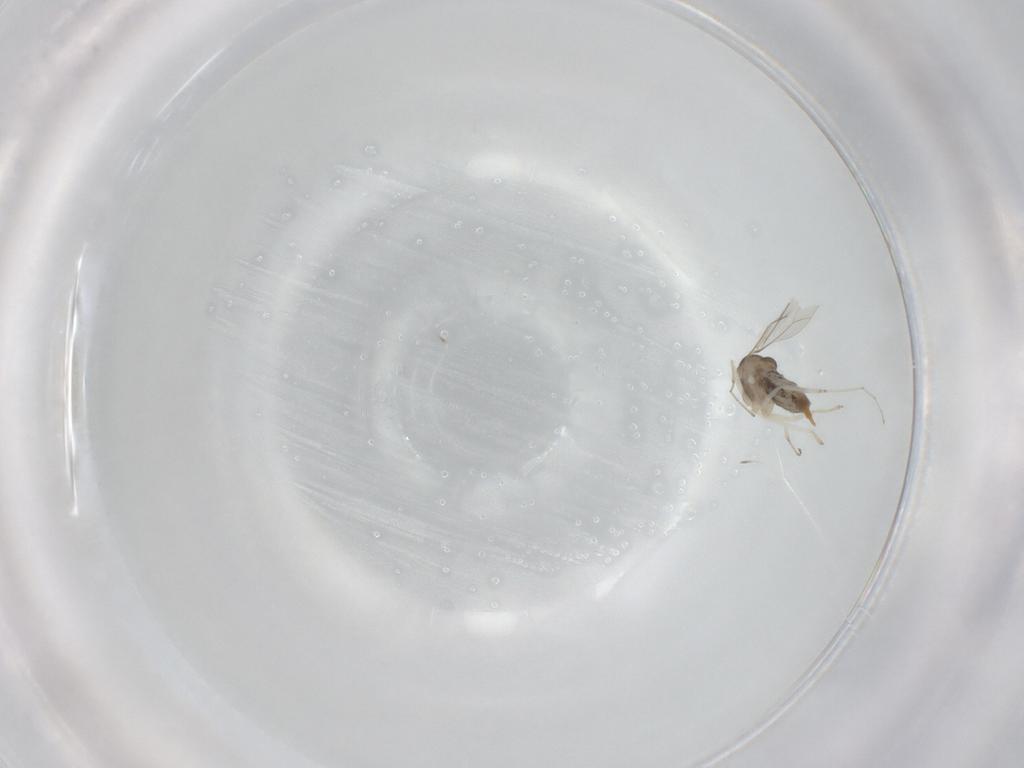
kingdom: Animalia
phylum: Arthropoda
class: Insecta
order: Diptera
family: Cecidomyiidae
